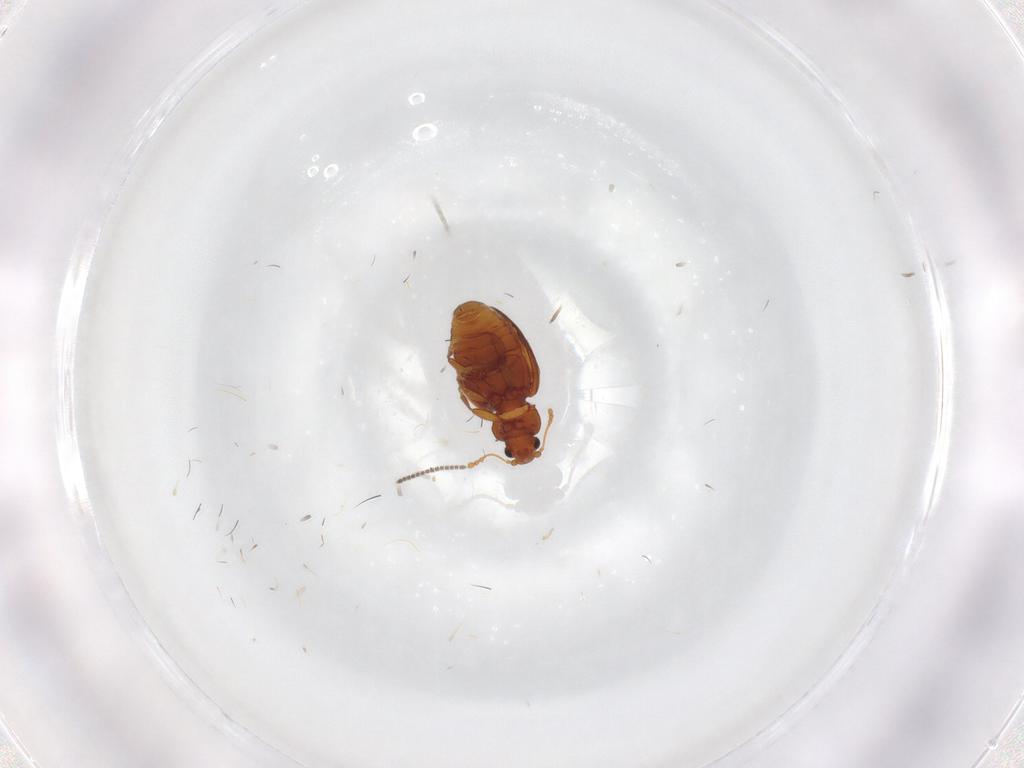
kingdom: Animalia
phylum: Arthropoda
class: Insecta
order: Coleoptera
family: Latridiidae
